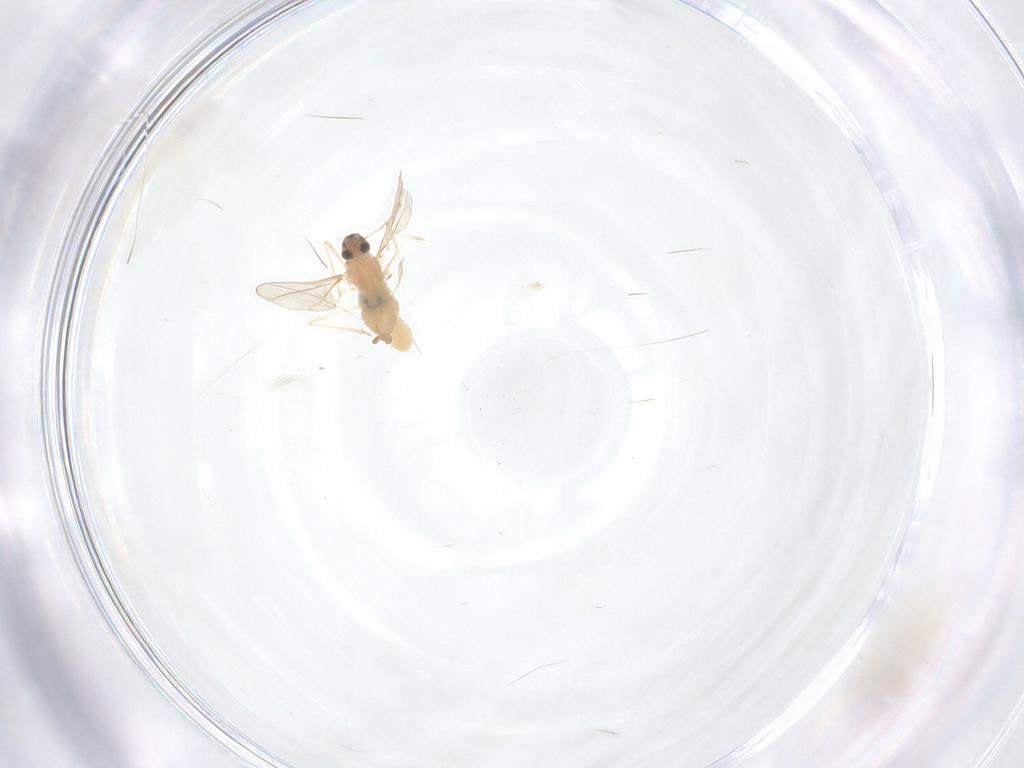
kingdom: Animalia
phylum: Arthropoda
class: Insecta
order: Diptera
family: Cecidomyiidae
